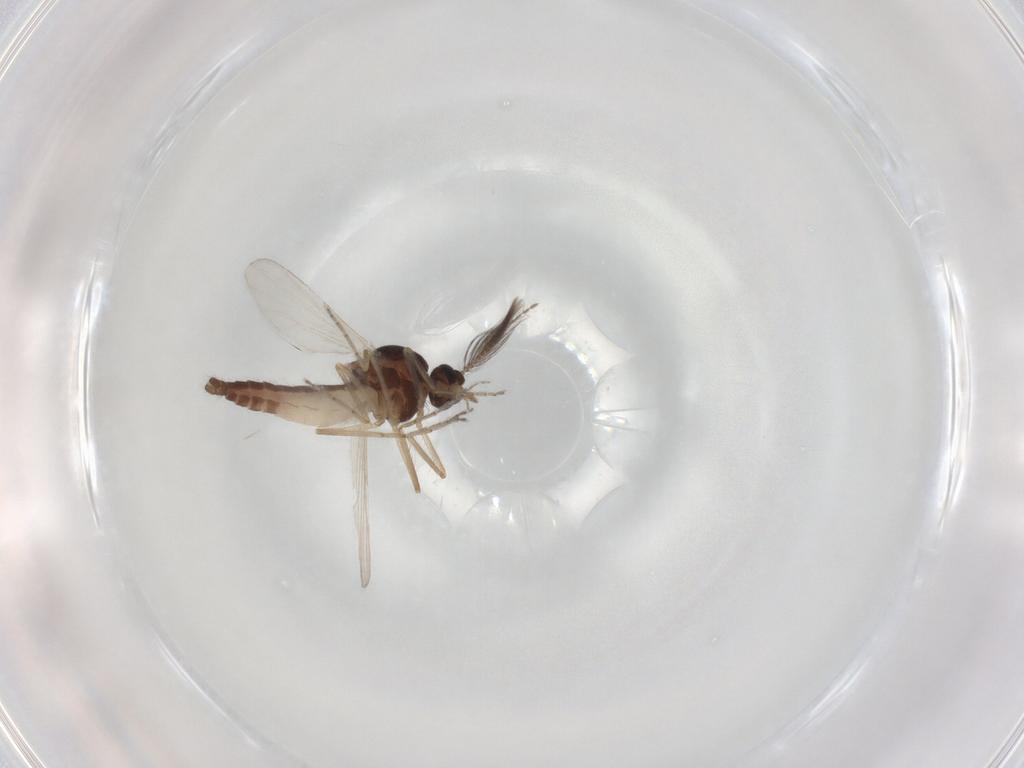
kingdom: Animalia
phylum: Arthropoda
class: Insecta
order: Diptera
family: Ceratopogonidae
